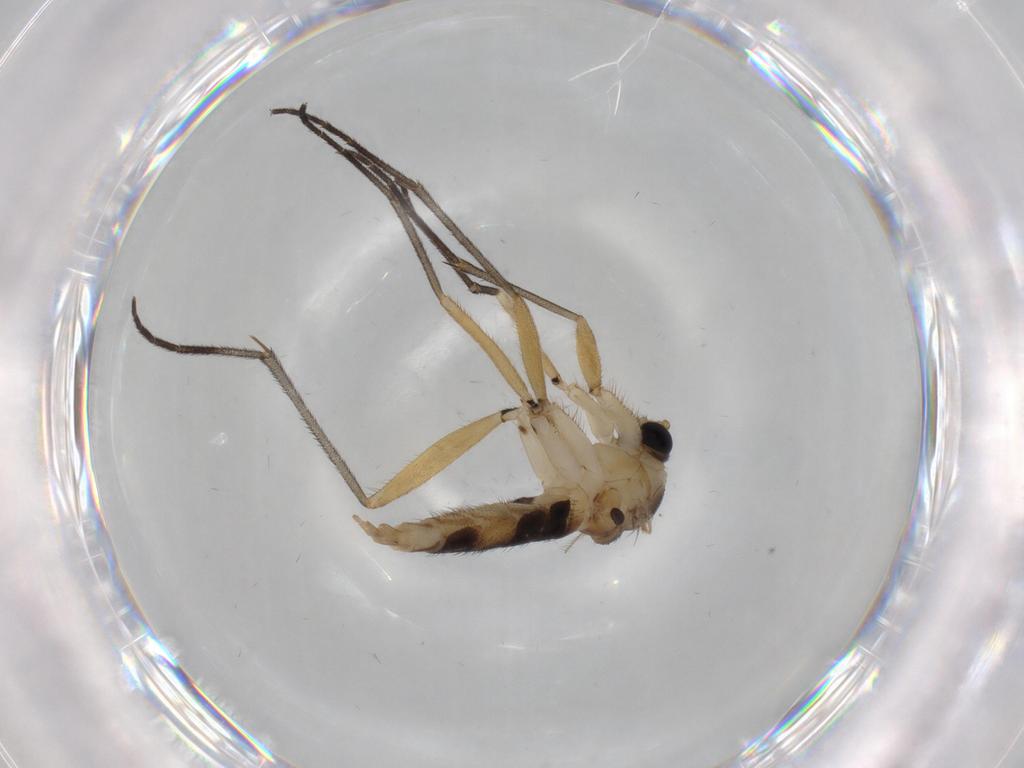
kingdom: Animalia
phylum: Arthropoda
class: Insecta
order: Diptera
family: Sciaridae
